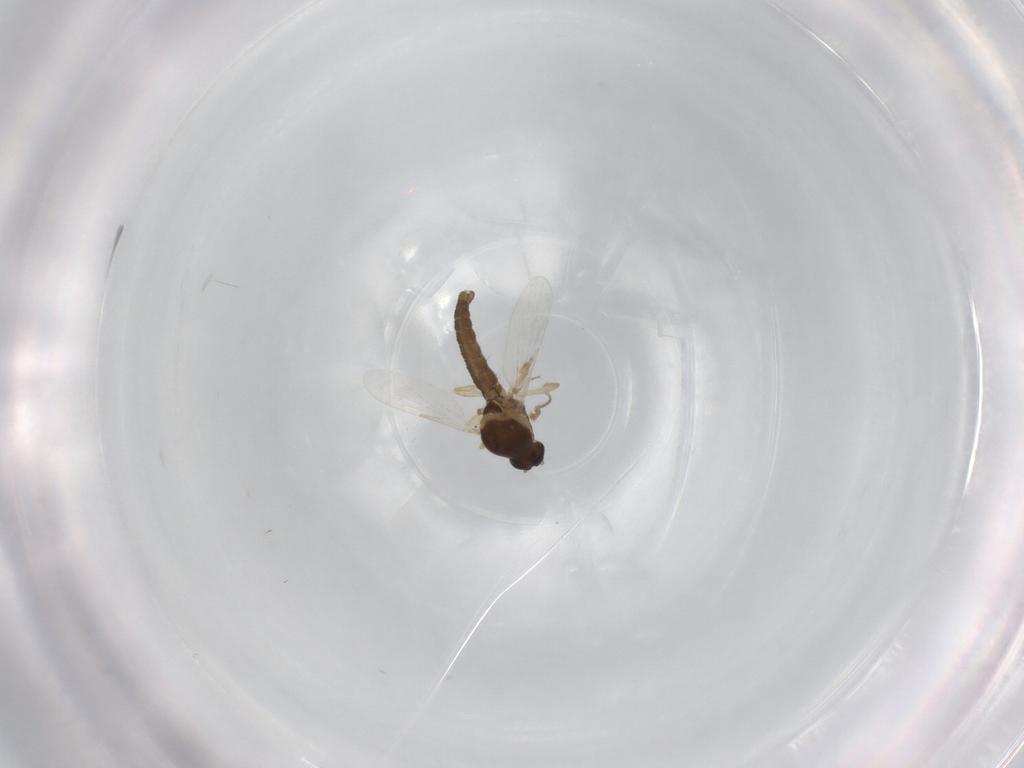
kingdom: Animalia
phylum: Arthropoda
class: Insecta
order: Diptera
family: Ceratopogonidae
